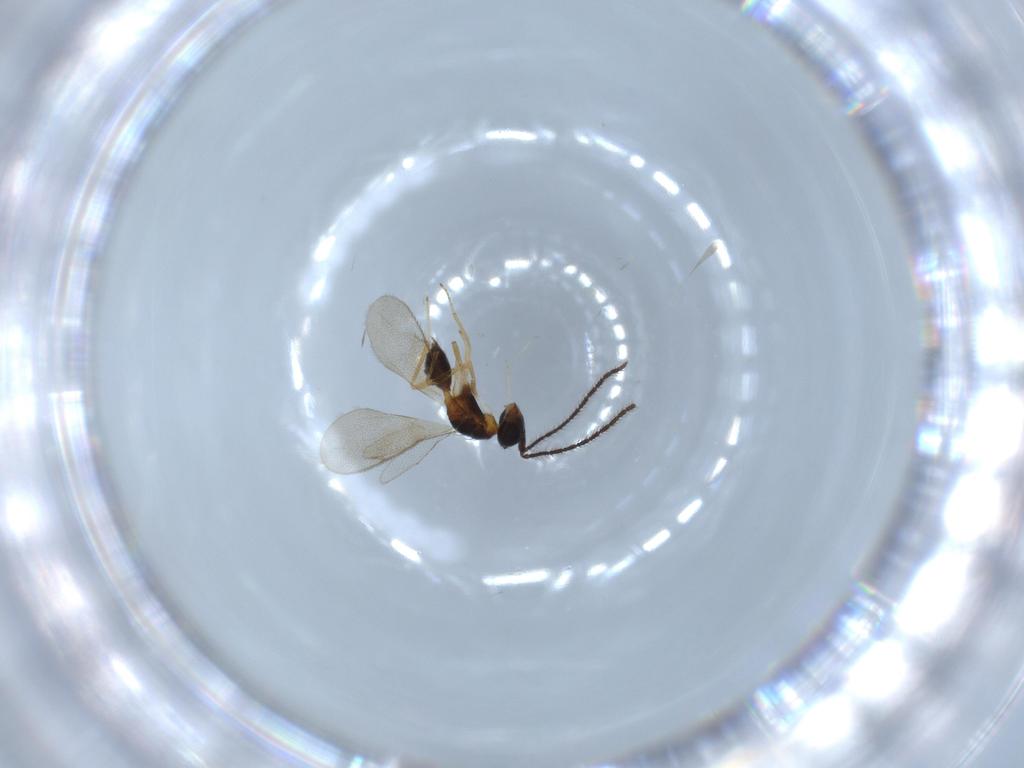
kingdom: Animalia
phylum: Arthropoda
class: Insecta
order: Hymenoptera
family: Diparidae
